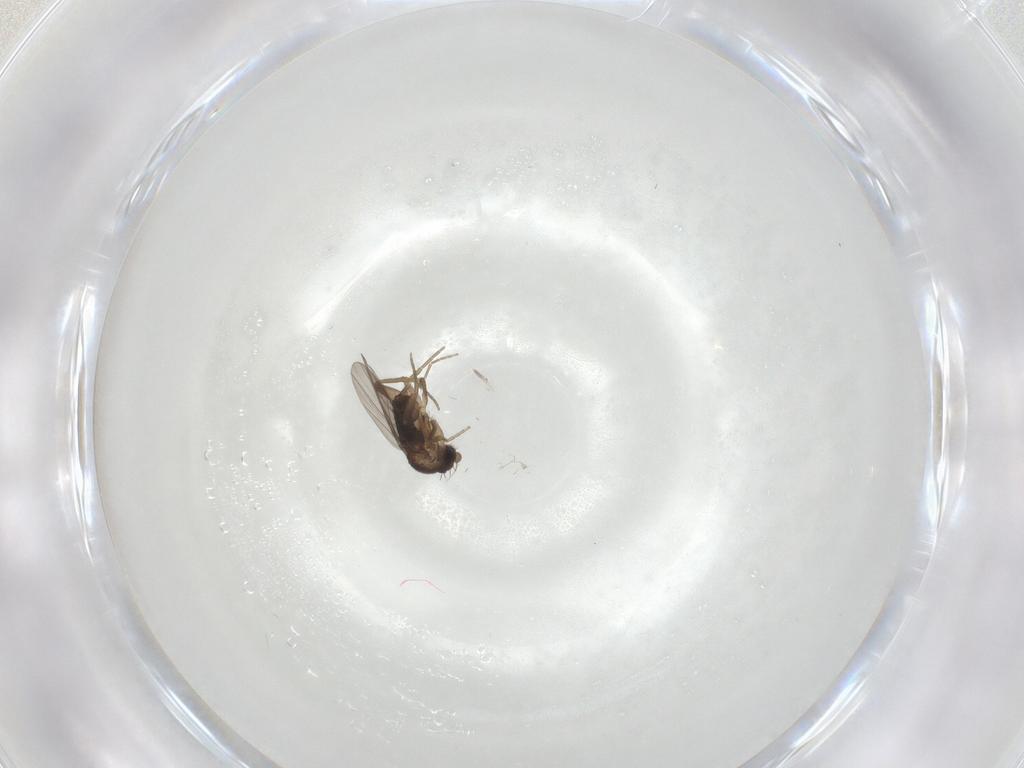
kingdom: Animalia
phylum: Arthropoda
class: Insecta
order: Diptera
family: Phoridae
